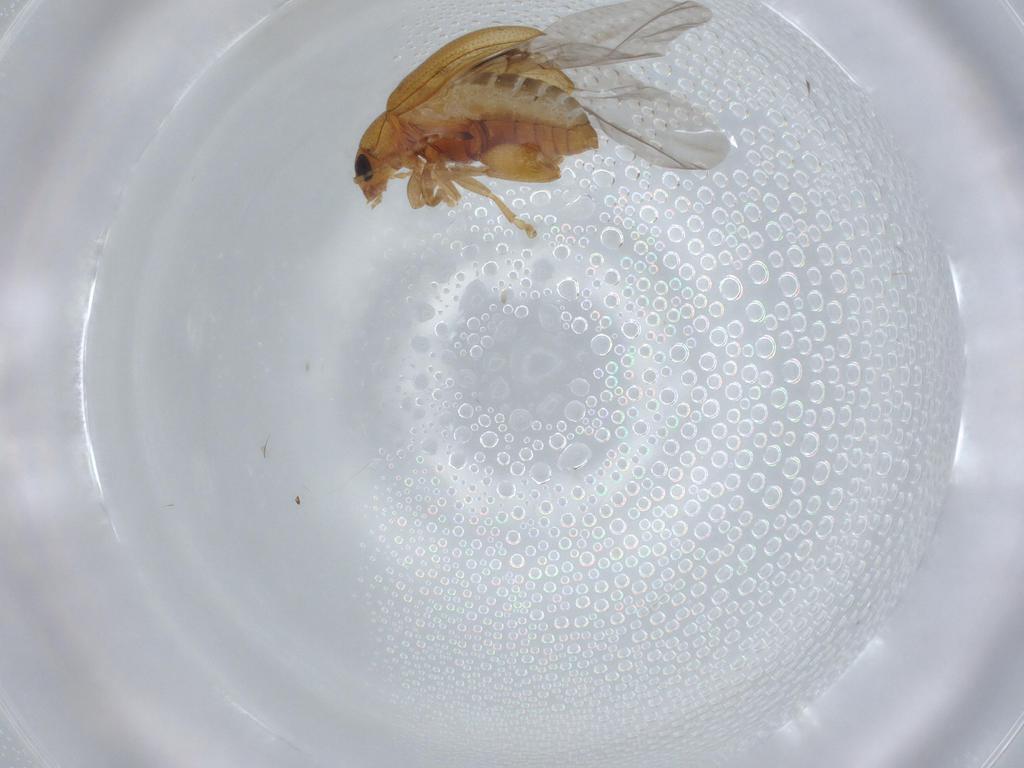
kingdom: Animalia
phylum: Arthropoda
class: Insecta
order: Coleoptera
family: Chrysomelidae
